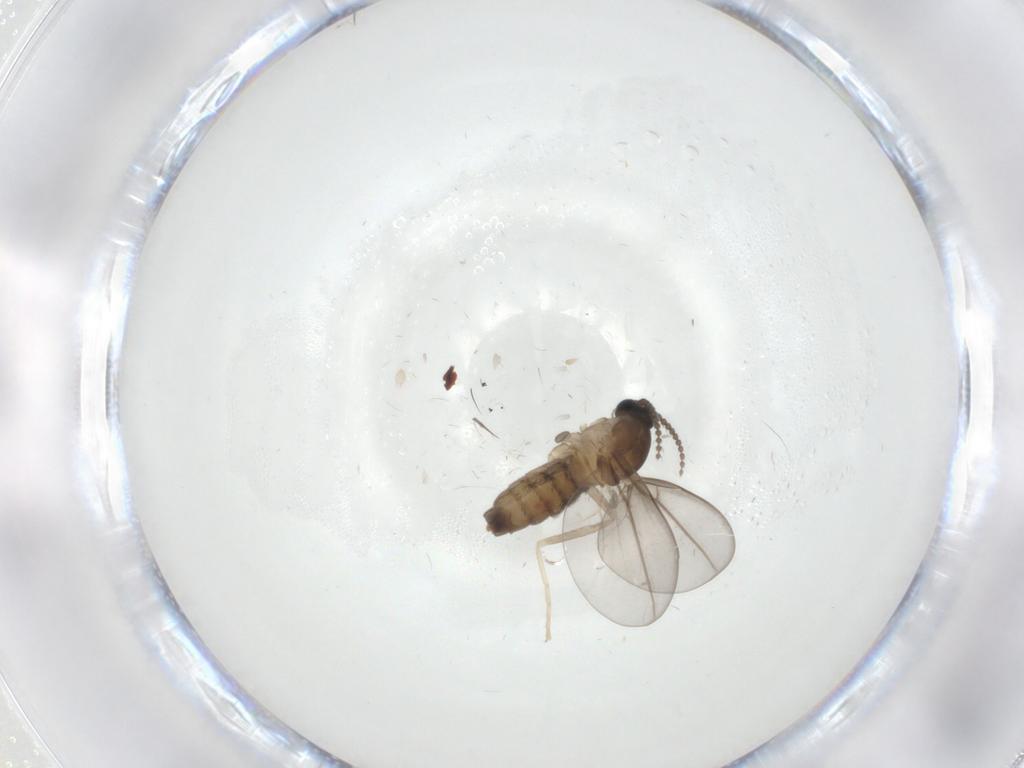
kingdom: Animalia
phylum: Arthropoda
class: Insecta
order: Diptera
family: Cecidomyiidae
